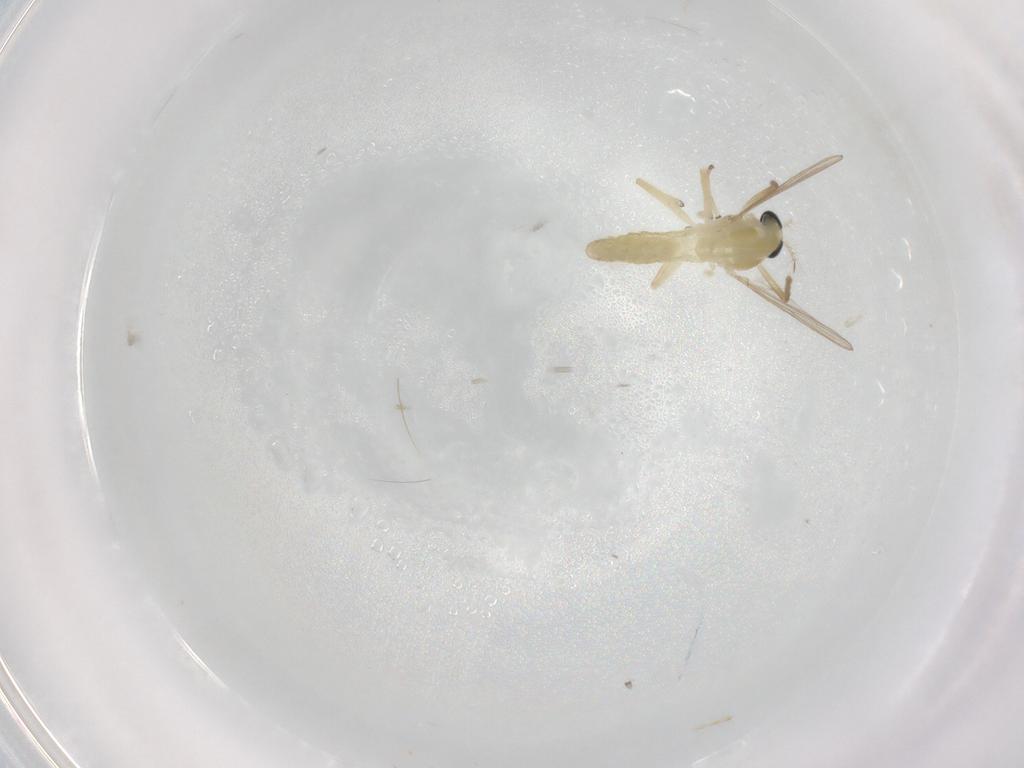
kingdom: Animalia
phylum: Arthropoda
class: Insecta
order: Diptera
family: Chironomidae
